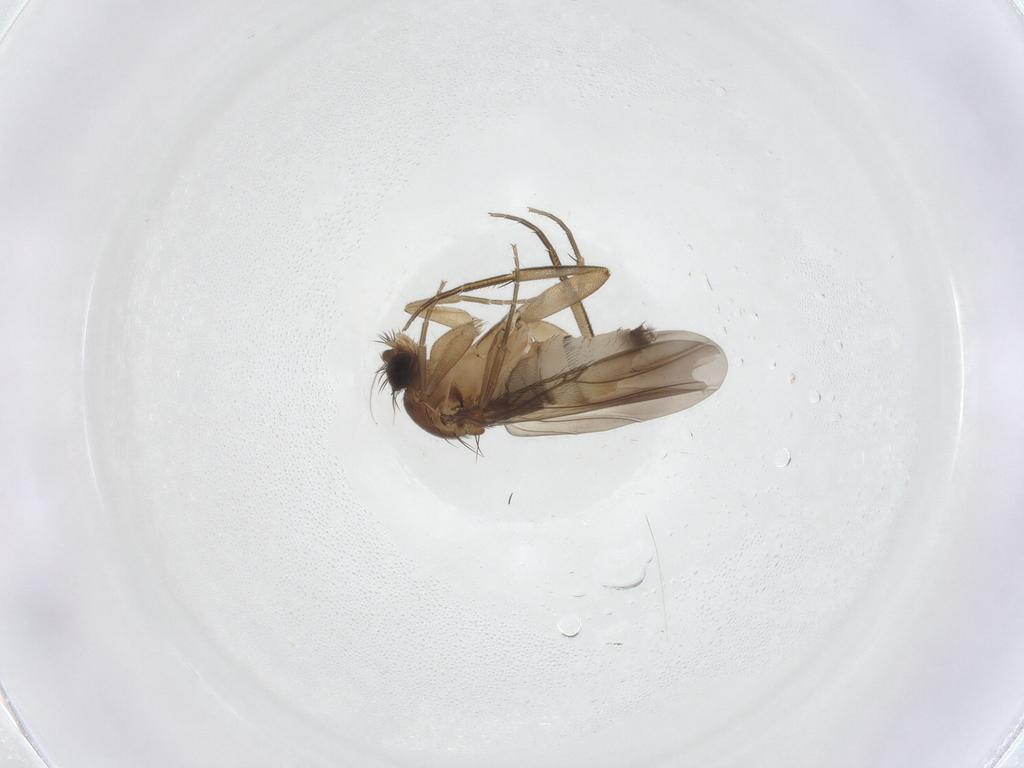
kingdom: Animalia
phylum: Arthropoda
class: Insecta
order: Diptera
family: Phoridae
